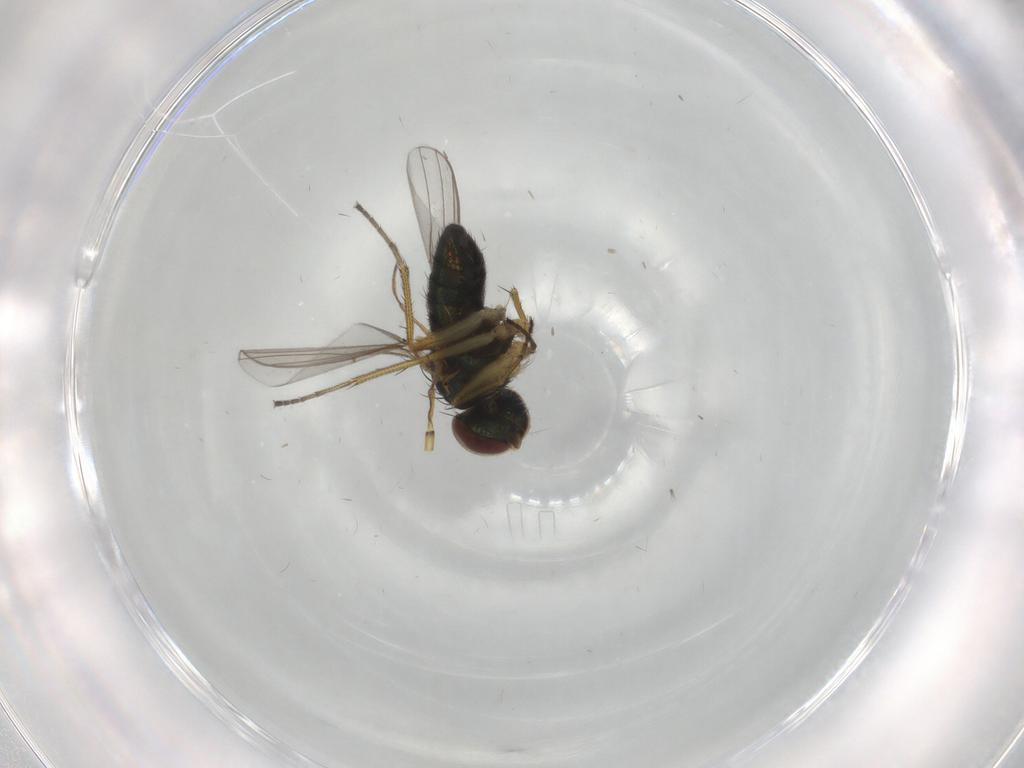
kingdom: Animalia
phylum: Arthropoda
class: Insecta
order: Diptera
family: Dolichopodidae
